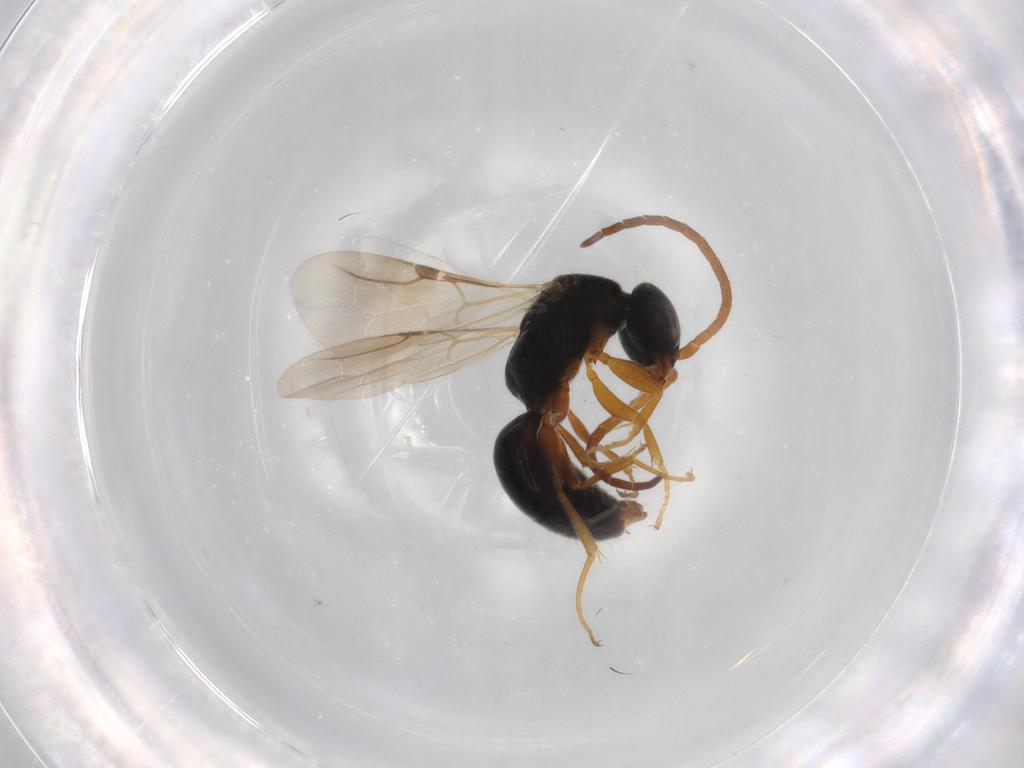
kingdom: Animalia
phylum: Arthropoda
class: Insecta
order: Hymenoptera
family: Bethylidae
